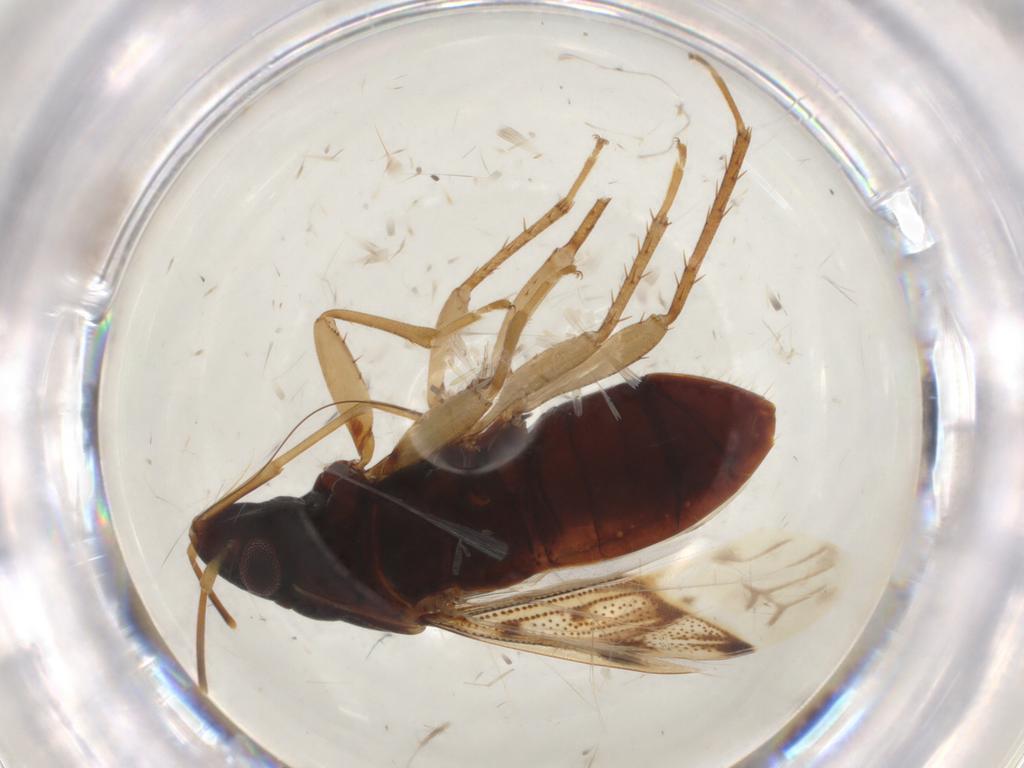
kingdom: Animalia
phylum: Arthropoda
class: Insecta
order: Hemiptera
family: Rhyparochromidae
